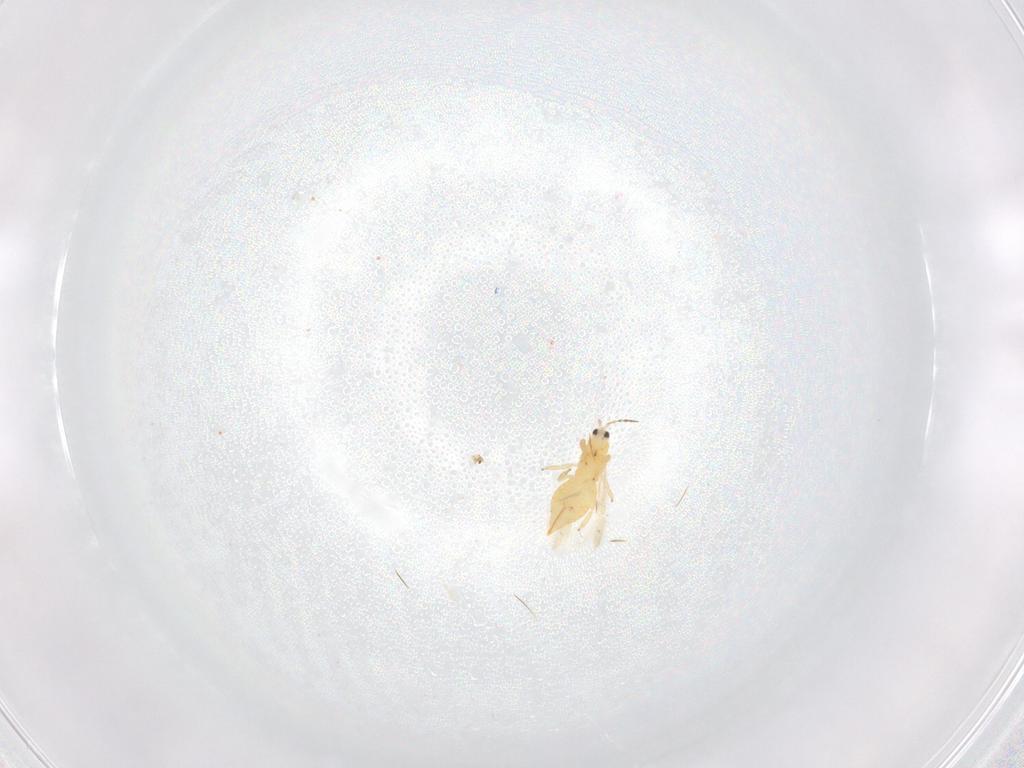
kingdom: Animalia
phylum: Arthropoda
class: Insecta
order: Thysanoptera
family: Melanthripidae
